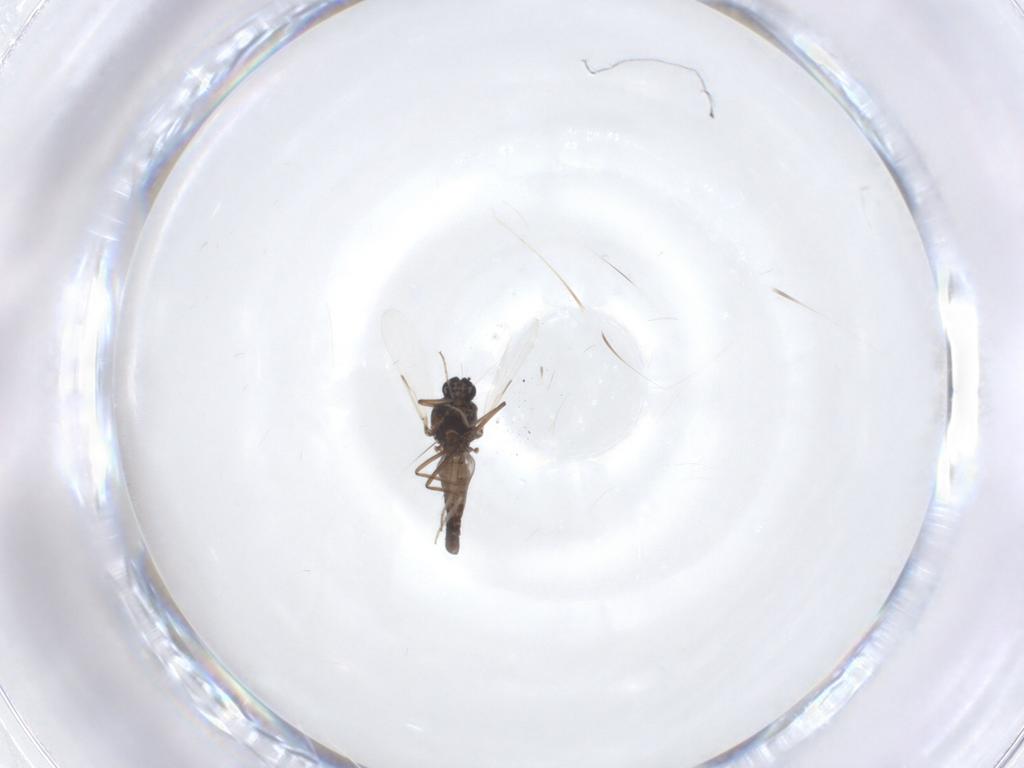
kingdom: Animalia
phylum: Arthropoda
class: Insecta
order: Diptera
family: Ceratopogonidae
